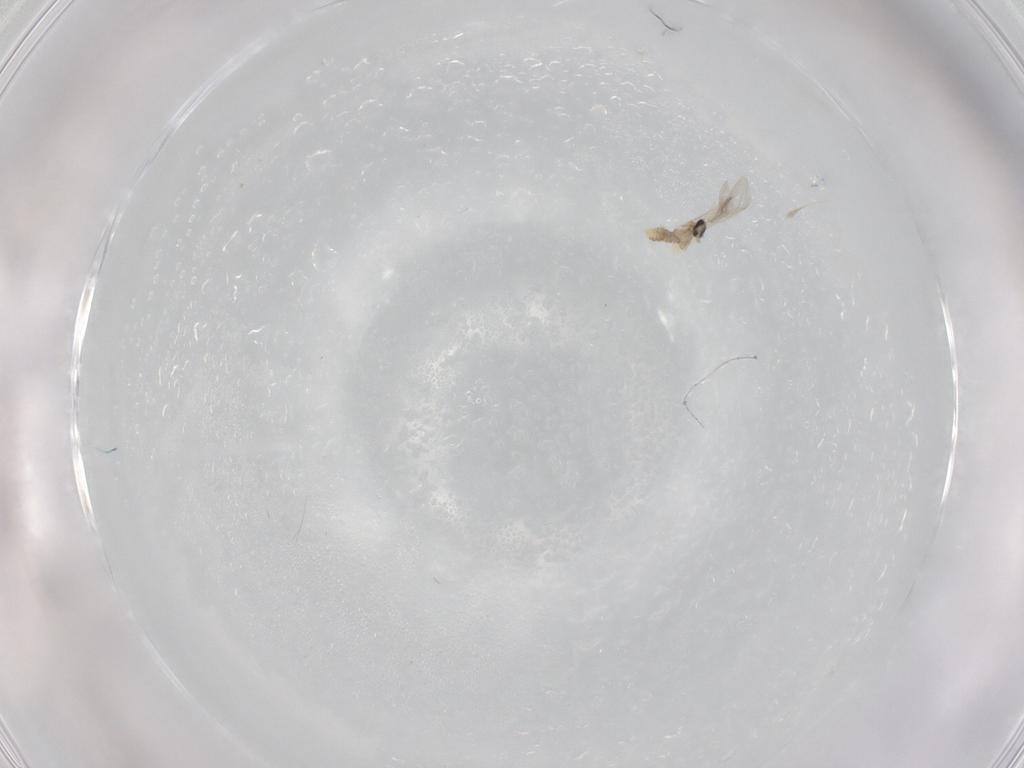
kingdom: Animalia
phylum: Arthropoda
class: Insecta
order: Diptera
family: Cecidomyiidae
